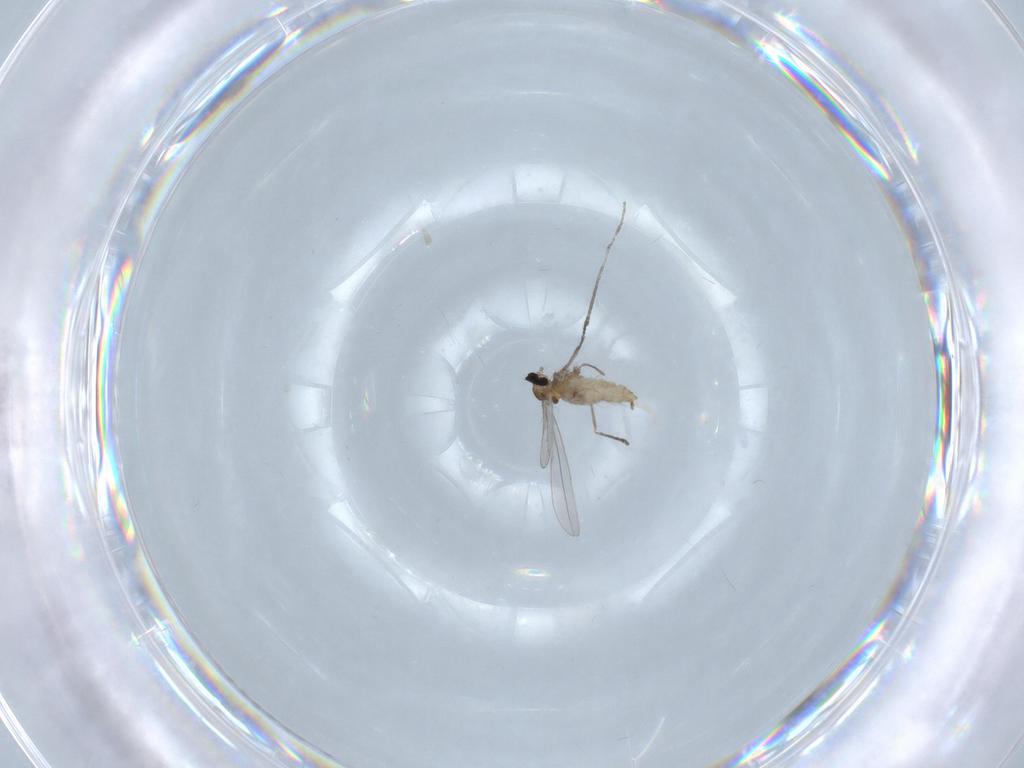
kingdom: Animalia
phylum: Arthropoda
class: Insecta
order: Diptera
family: Cecidomyiidae
